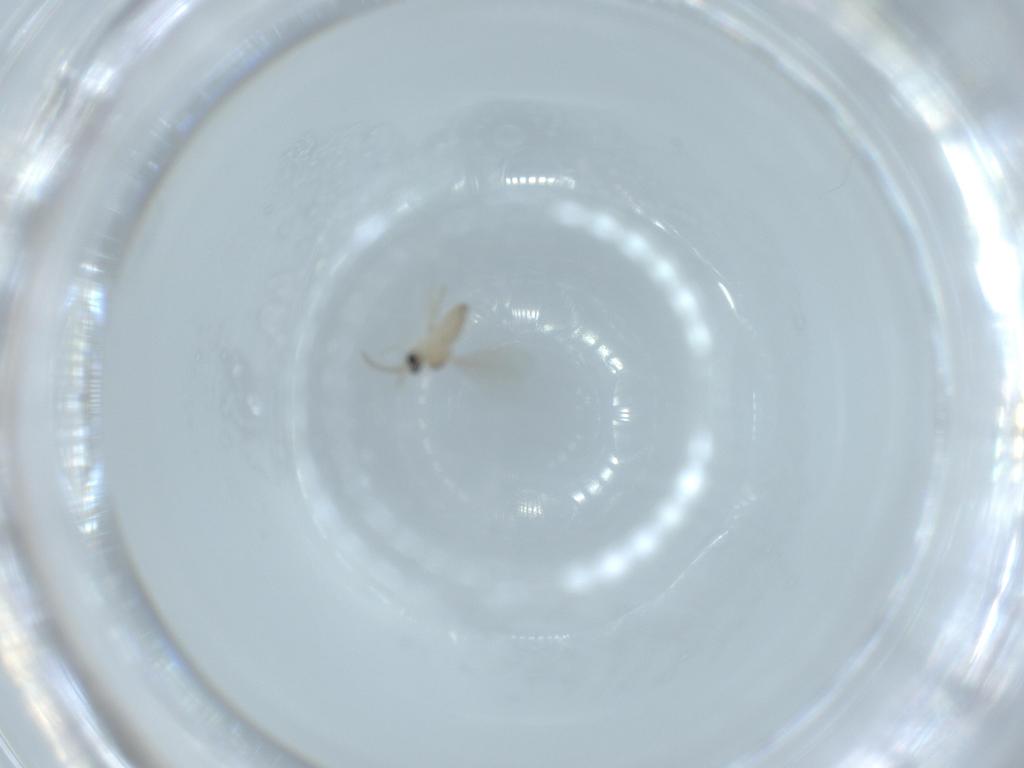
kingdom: Animalia
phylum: Arthropoda
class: Insecta
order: Diptera
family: Cecidomyiidae
